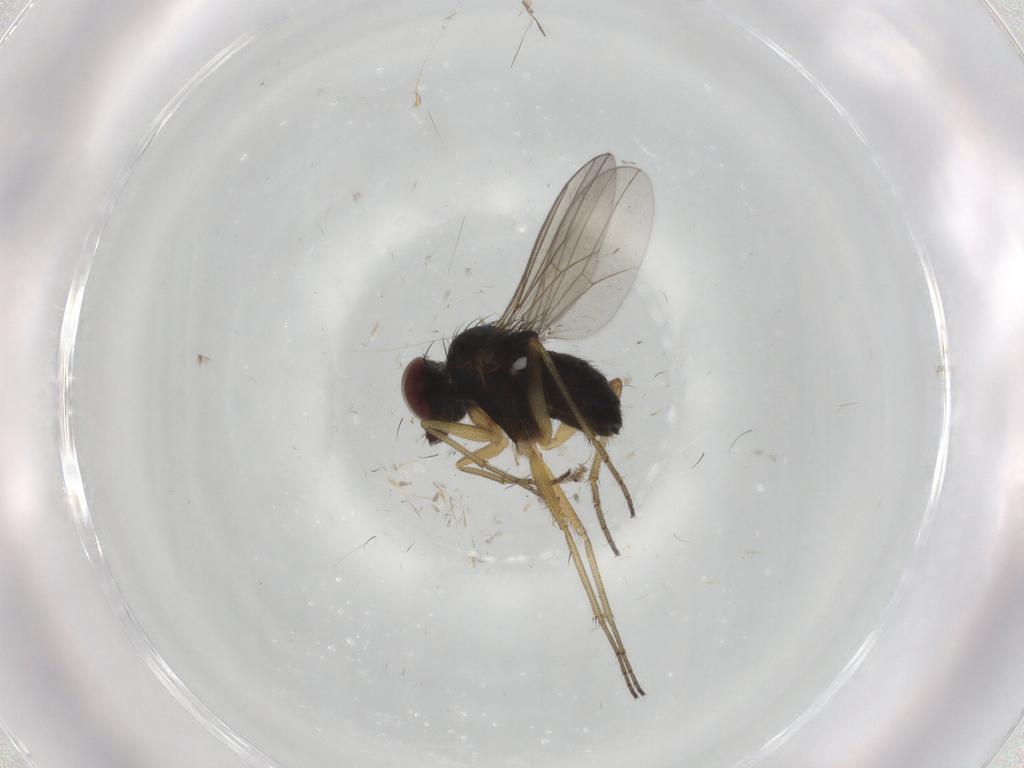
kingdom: Animalia
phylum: Arthropoda
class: Insecta
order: Diptera
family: Dolichopodidae
